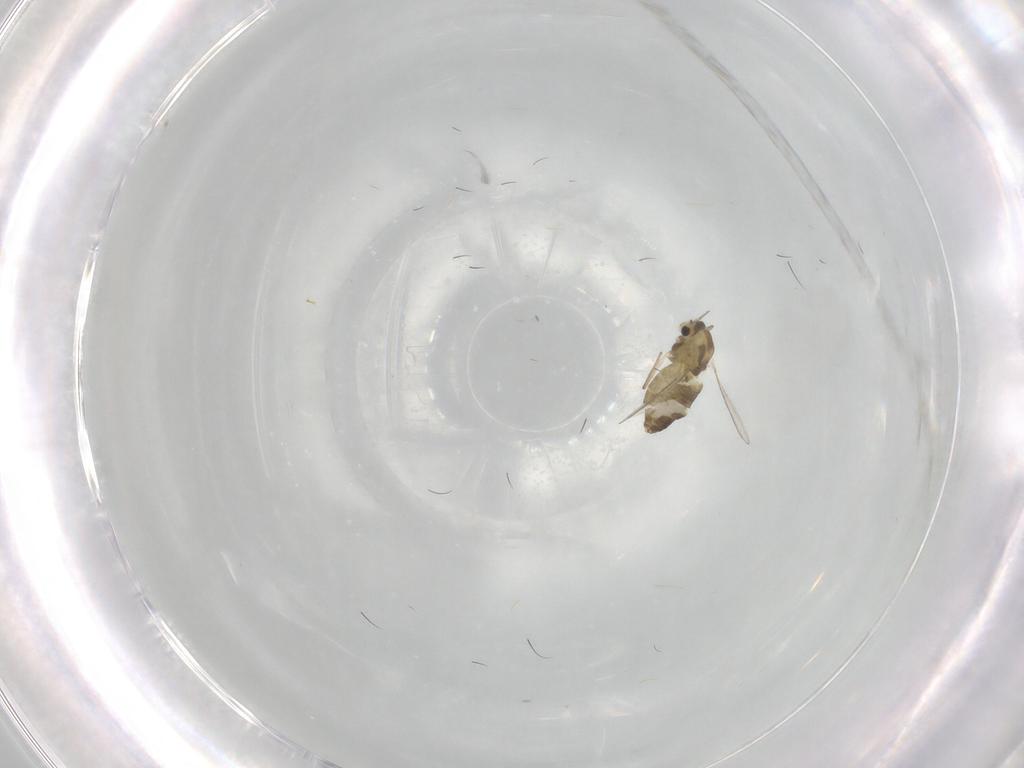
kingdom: Animalia
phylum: Arthropoda
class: Insecta
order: Diptera
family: Chironomidae
